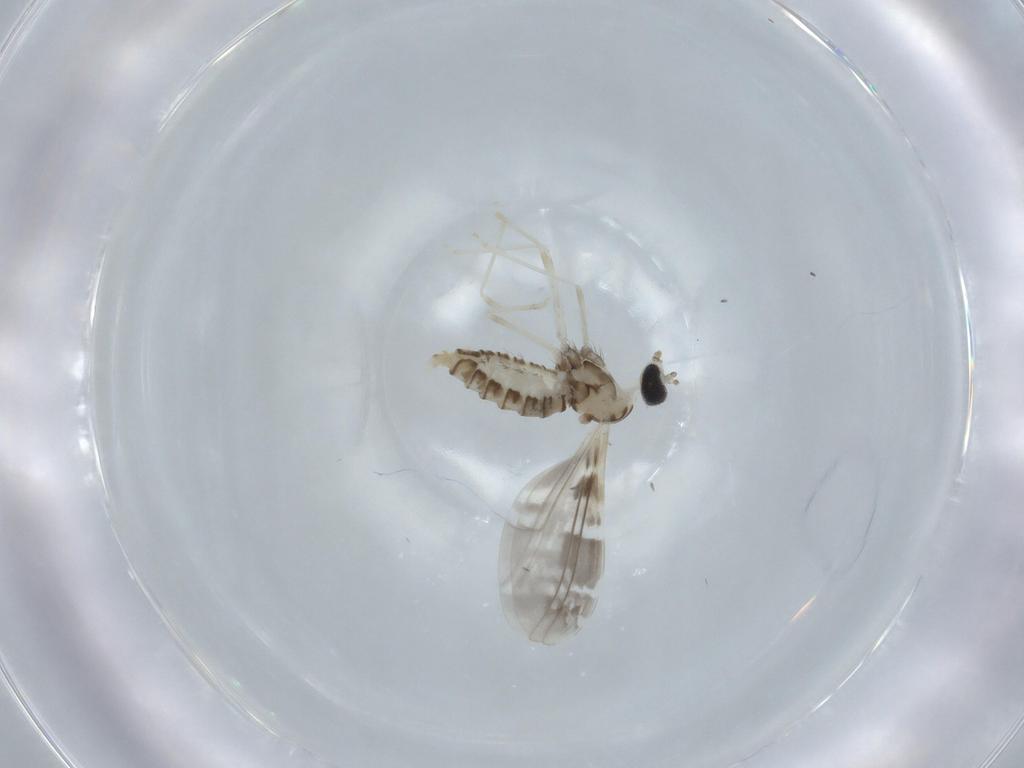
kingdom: Animalia
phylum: Arthropoda
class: Insecta
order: Diptera
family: Cecidomyiidae
